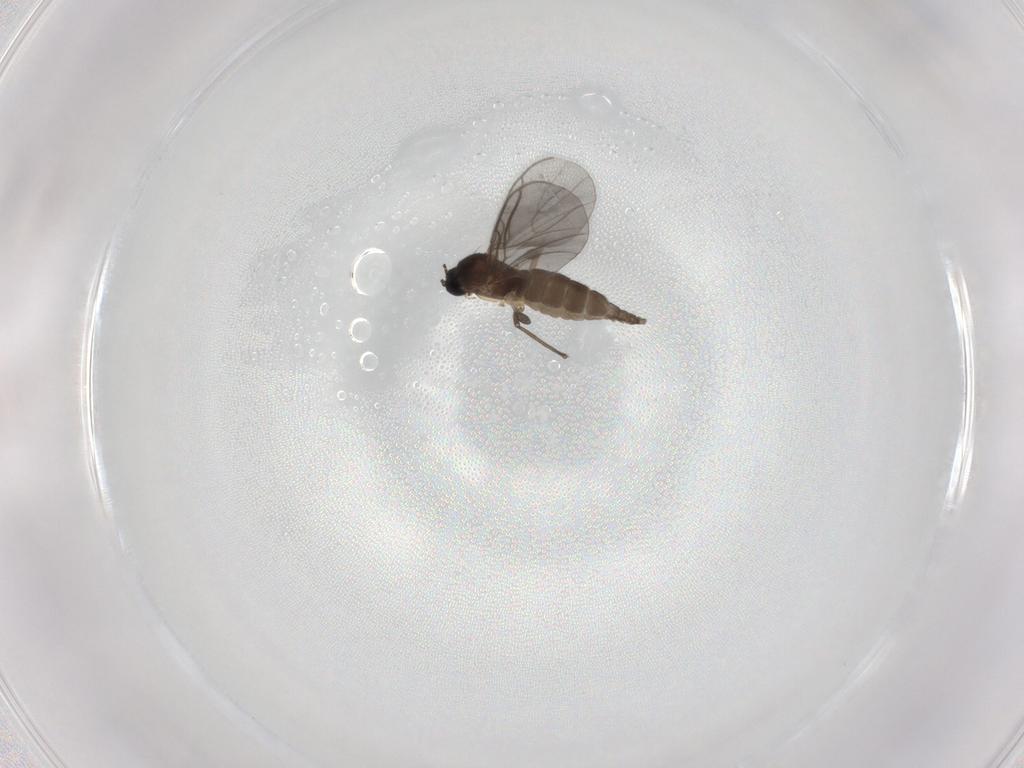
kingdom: Animalia
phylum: Arthropoda
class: Insecta
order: Diptera
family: Sciaridae
